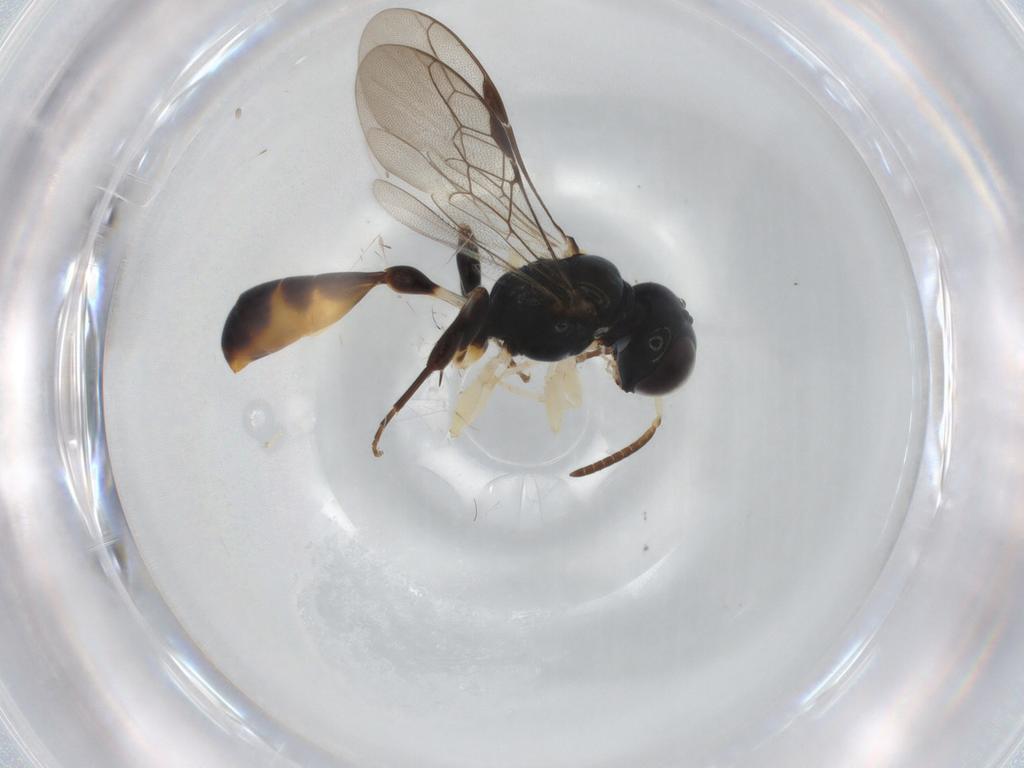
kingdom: Animalia
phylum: Arthropoda
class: Insecta
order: Hymenoptera
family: Crabronidae
